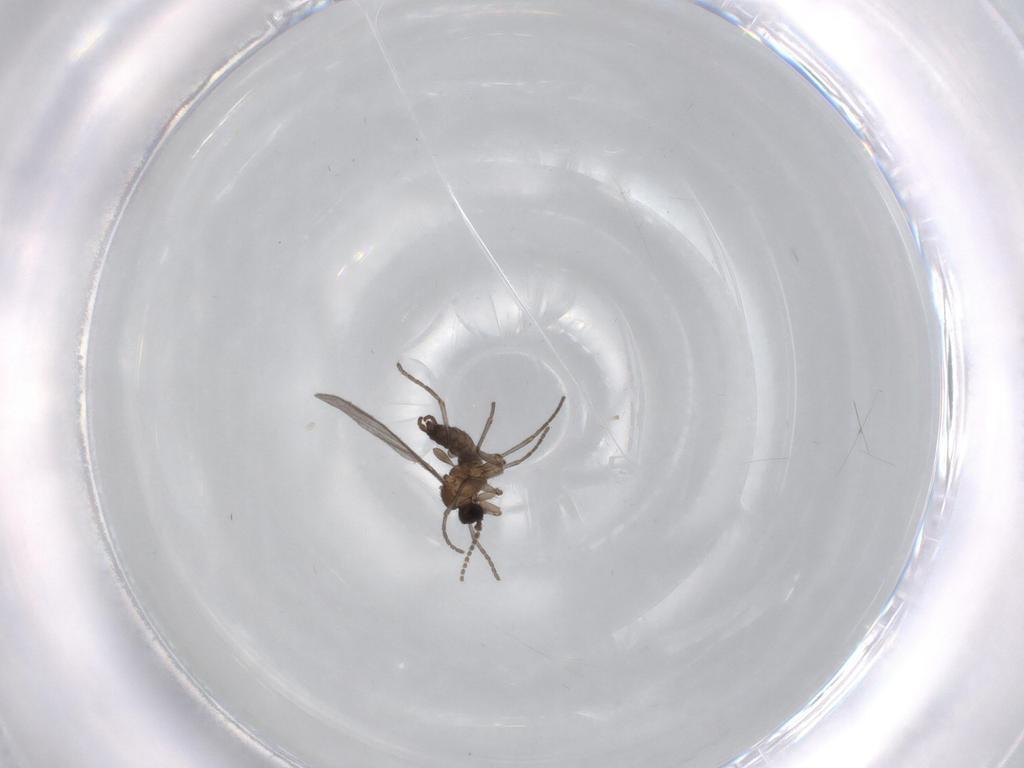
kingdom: Animalia
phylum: Arthropoda
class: Insecta
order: Diptera
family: Sciaridae
